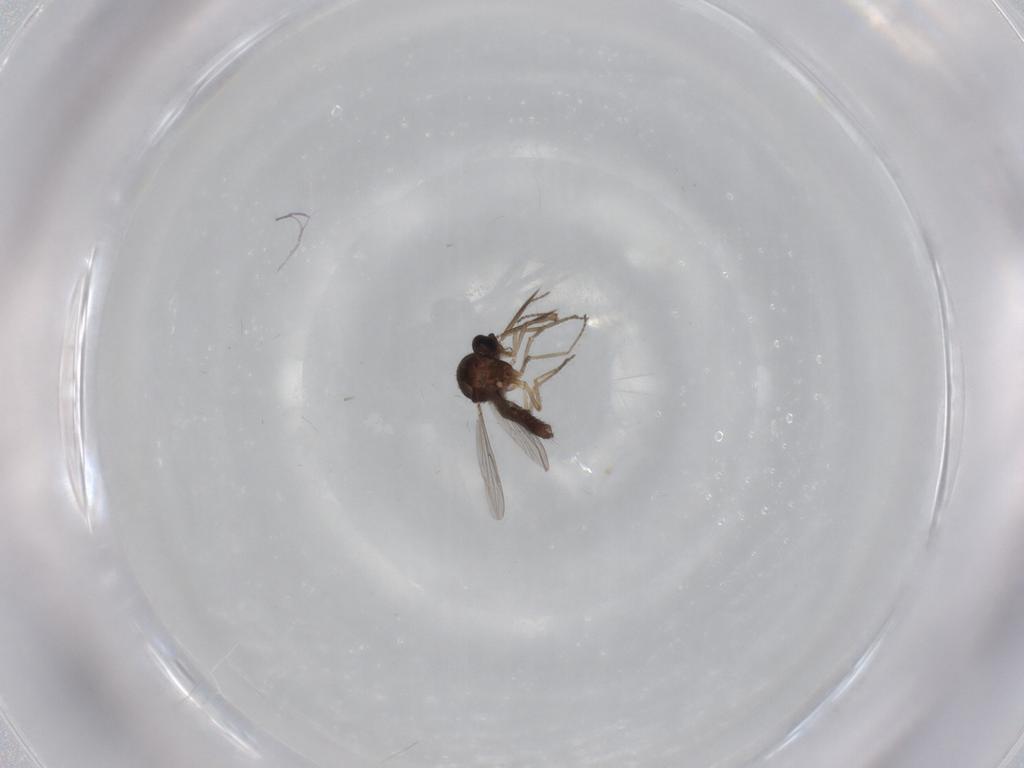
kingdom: Animalia
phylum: Arthropoda
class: Insecta
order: Diptera
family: Ceratopogonidae
